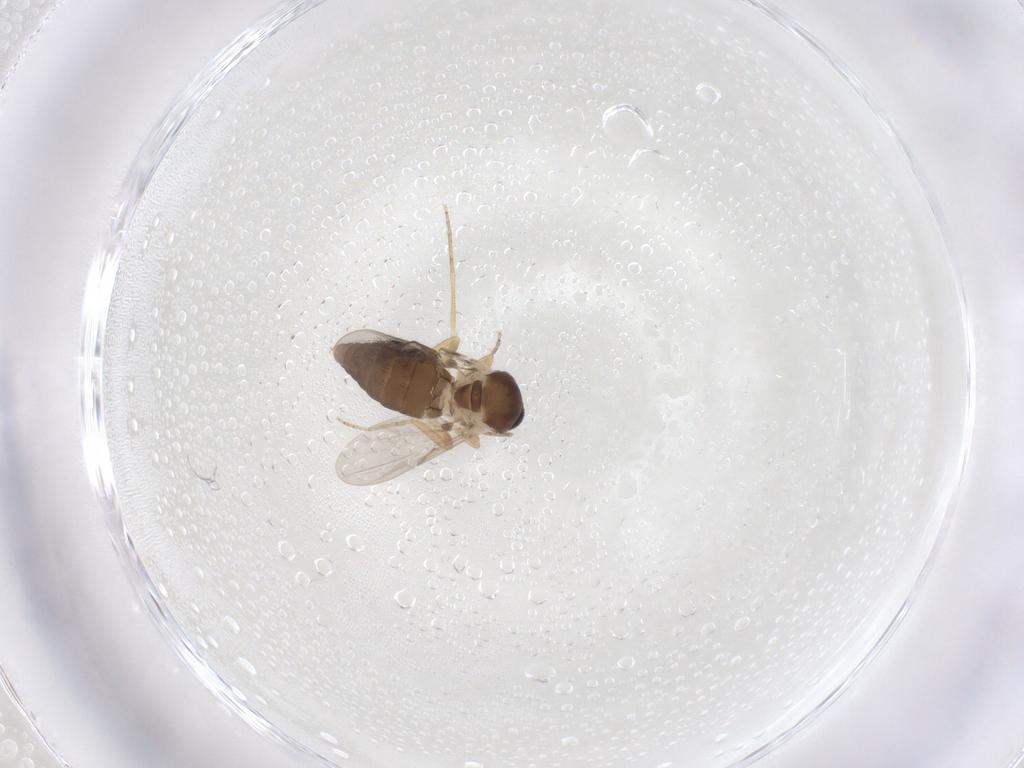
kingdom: Animalia
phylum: Arthropoda
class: Insecta
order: Diptera
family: Ceratopogonidae
